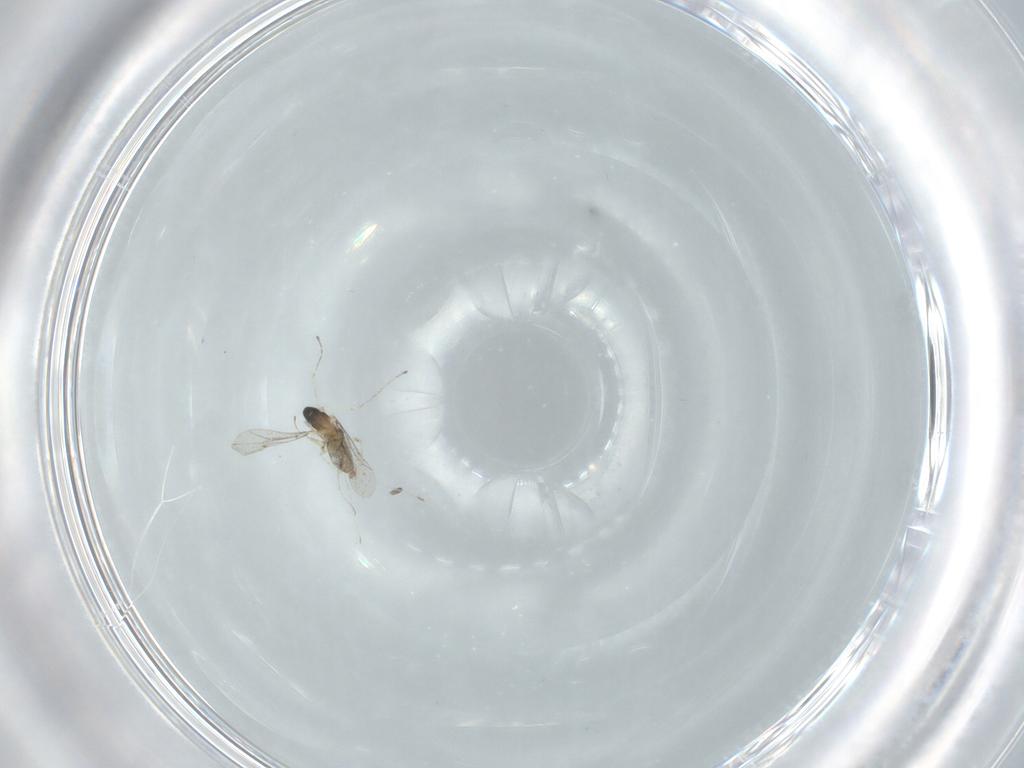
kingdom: Animalia
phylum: Arthropoda
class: Insecta
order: Diptera
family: Cecidomyiidae
